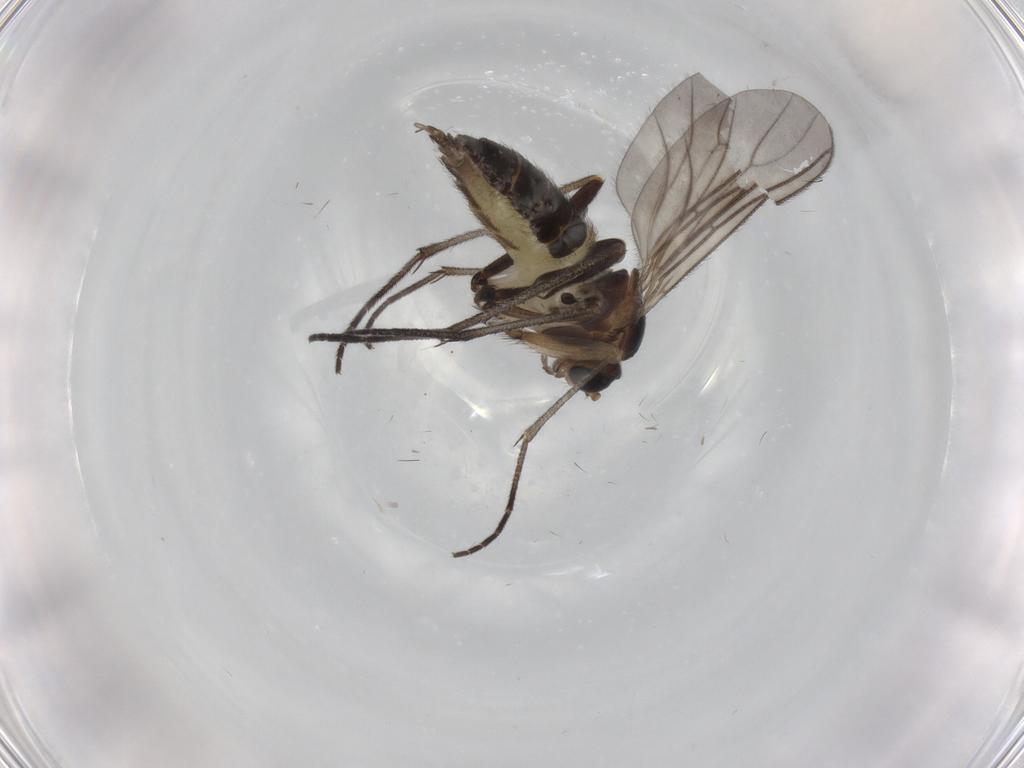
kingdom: Animalia
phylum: Arthropoda
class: Insecta
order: Diptera
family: Sciaridae
